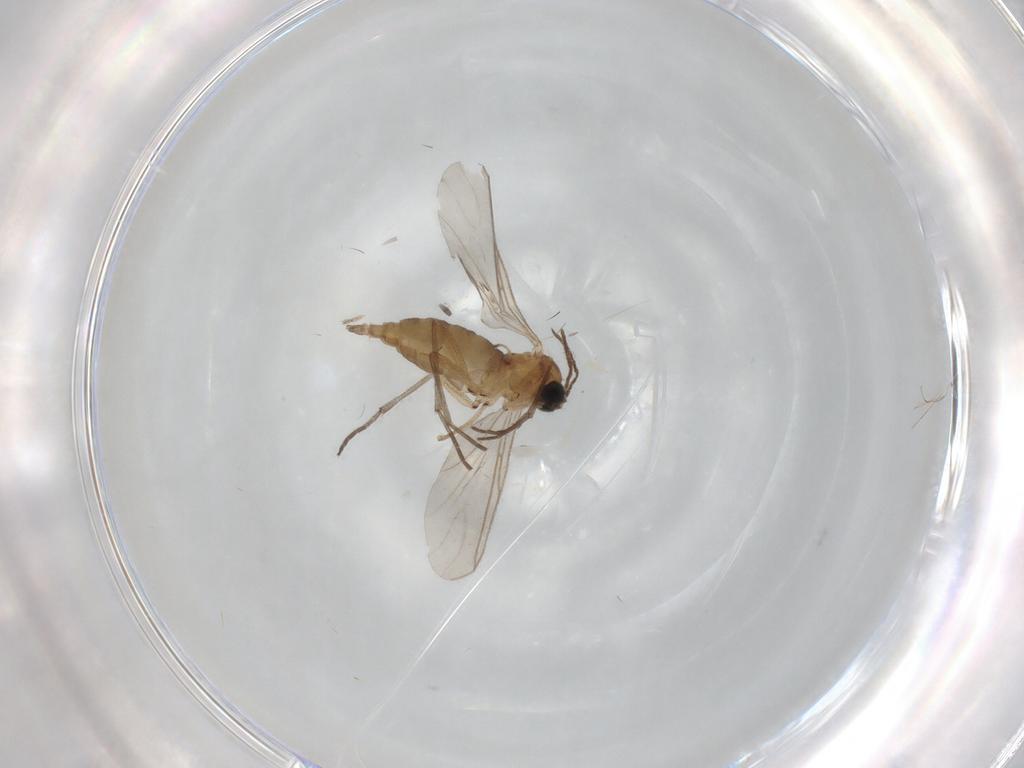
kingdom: Animalia
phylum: Arthropoda
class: Insecta
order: Diptera
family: Sciaridae
